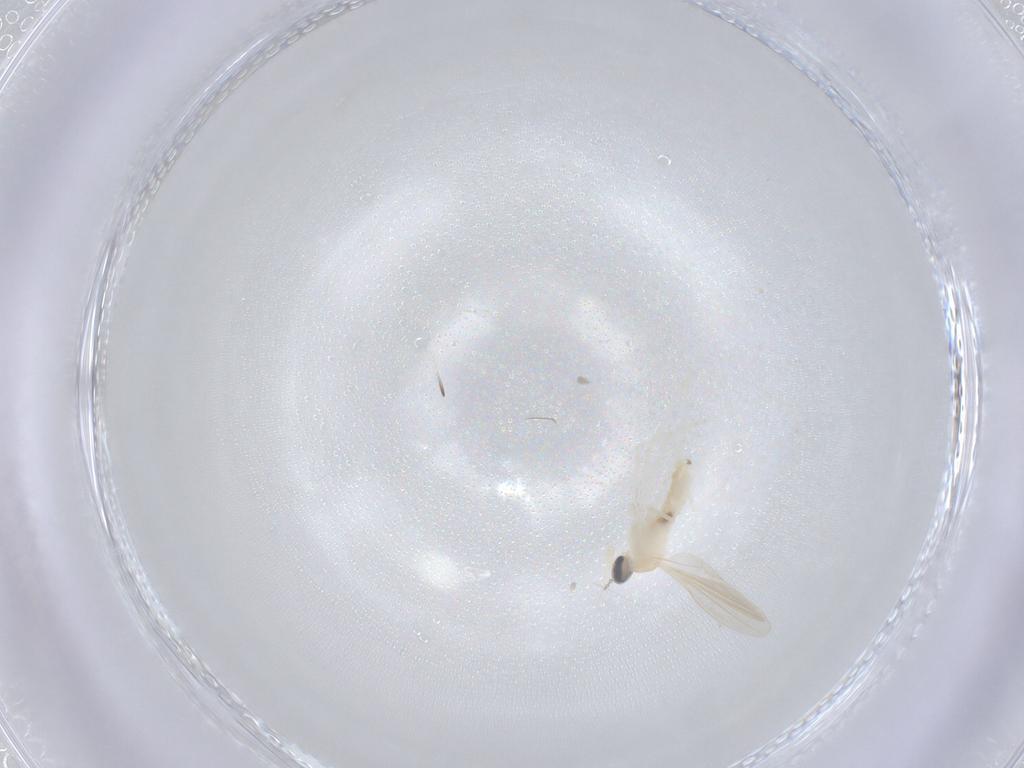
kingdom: Animalia
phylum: Arthropoda
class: Insecta
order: Diptera
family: Cecidomyiidae
